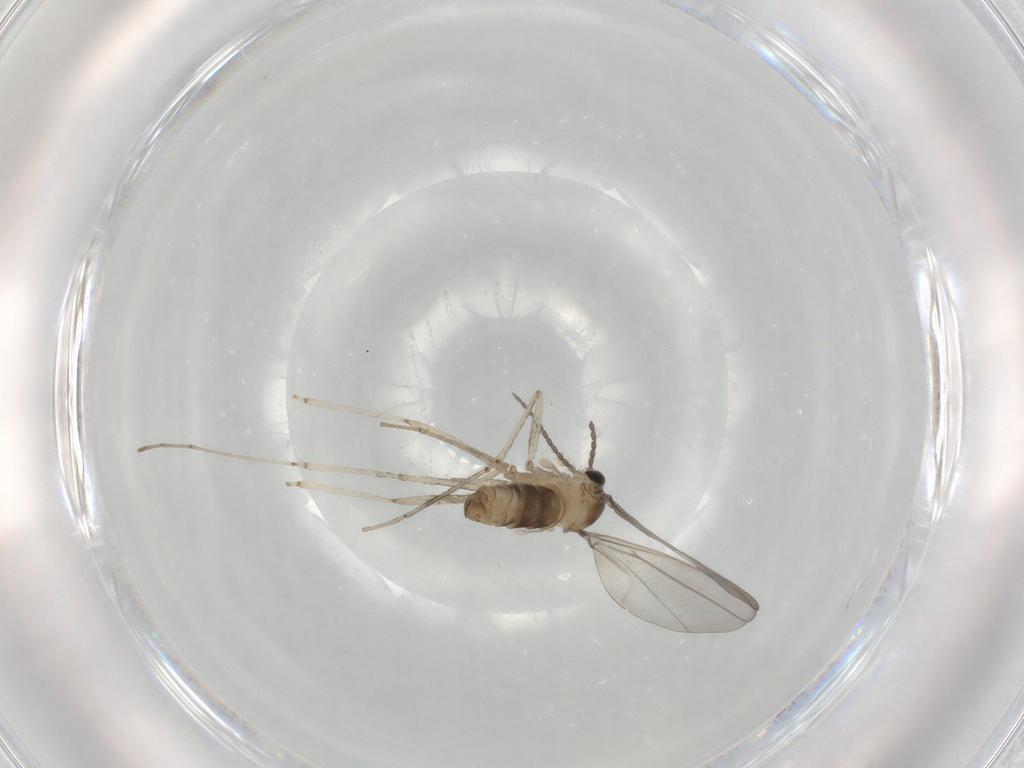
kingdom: Animalia
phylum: Arthropoda
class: Insecta
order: Diptera
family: Cecidomyiidae
